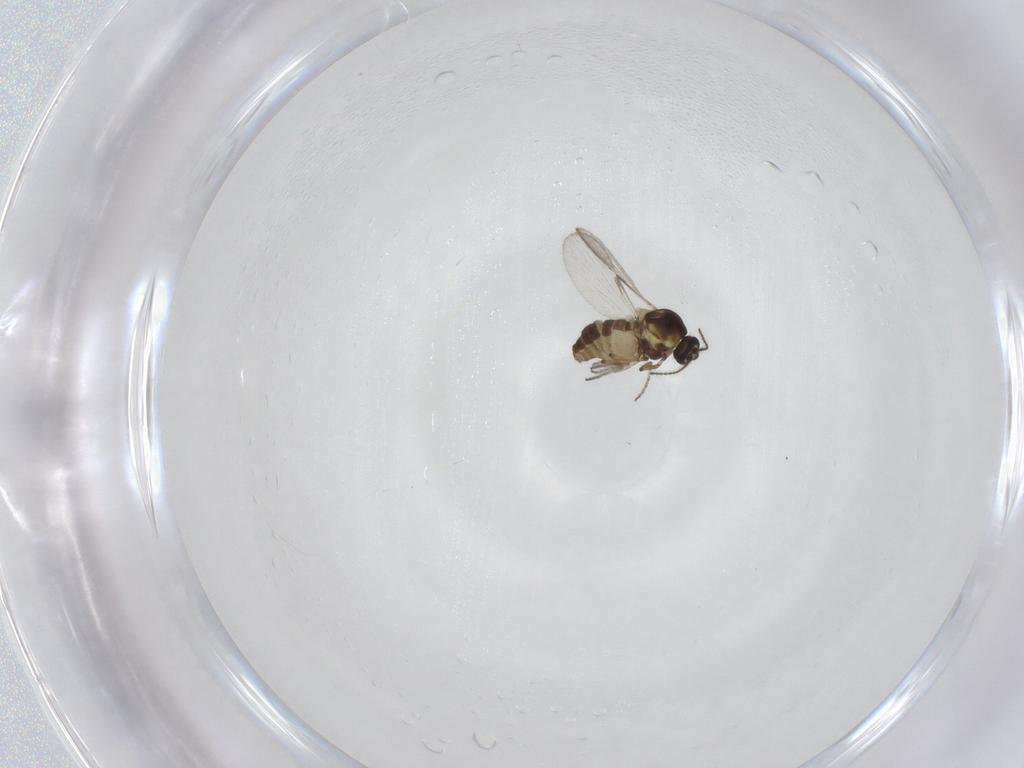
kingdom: Animalia
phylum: Arthropoda
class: Insecta
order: Diptera
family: Ceratopogonidae
